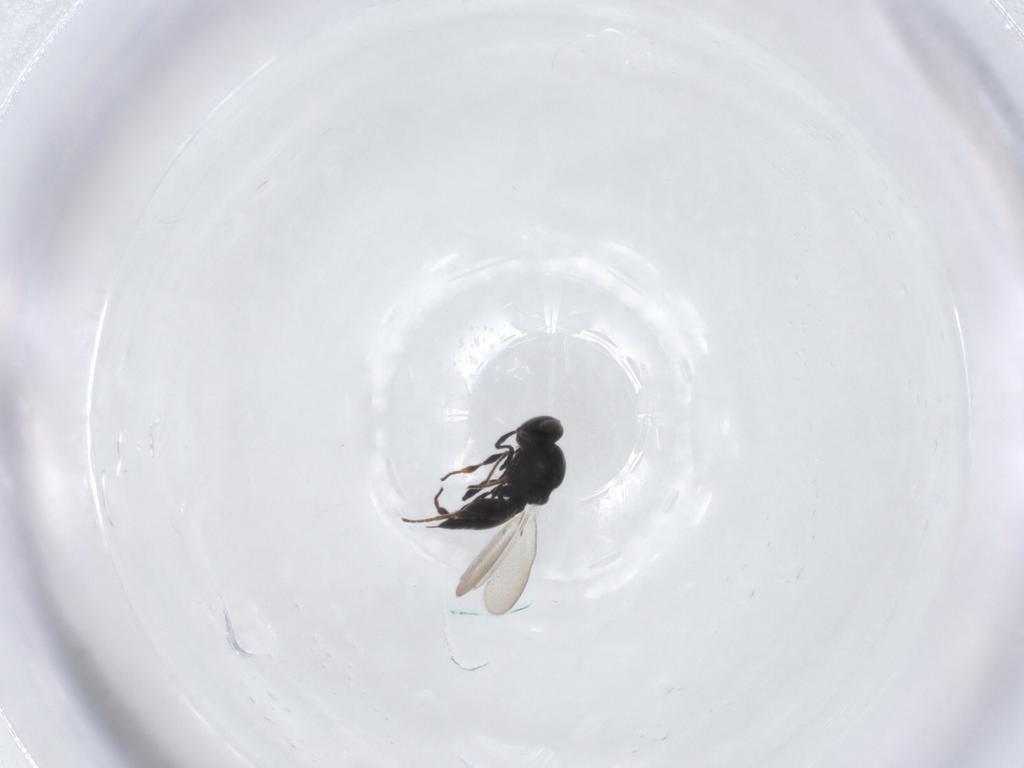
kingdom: Animalia
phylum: Arthropoda
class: Insecta
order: Hymenoptera
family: Platygastridae
